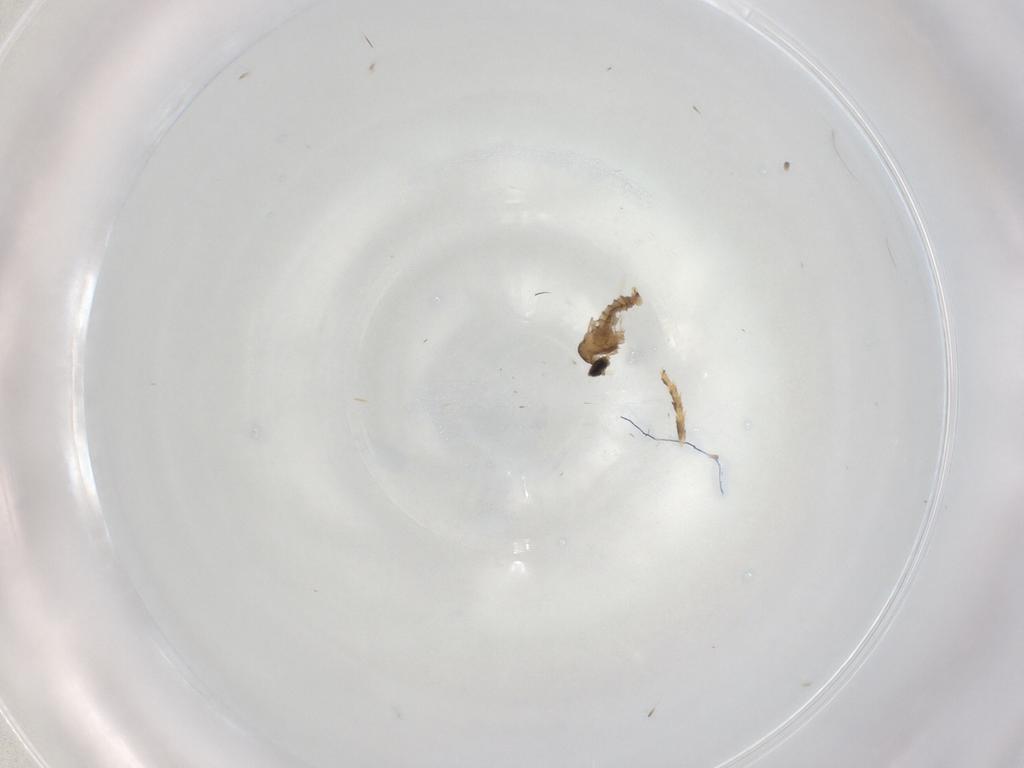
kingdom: Animalia
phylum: Arthropoda
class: Insecta
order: Diptera
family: Cecidomyiidae
